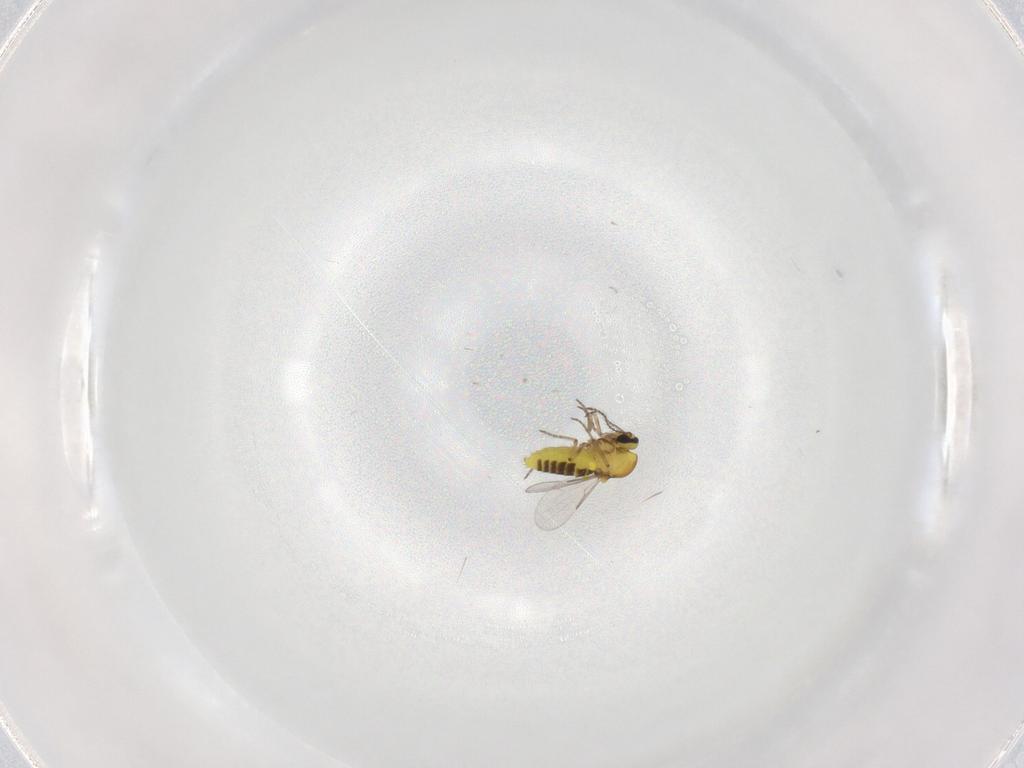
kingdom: Animalia
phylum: Arthropoda
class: Insecta
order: Diptera
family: Ceratopogonidae
